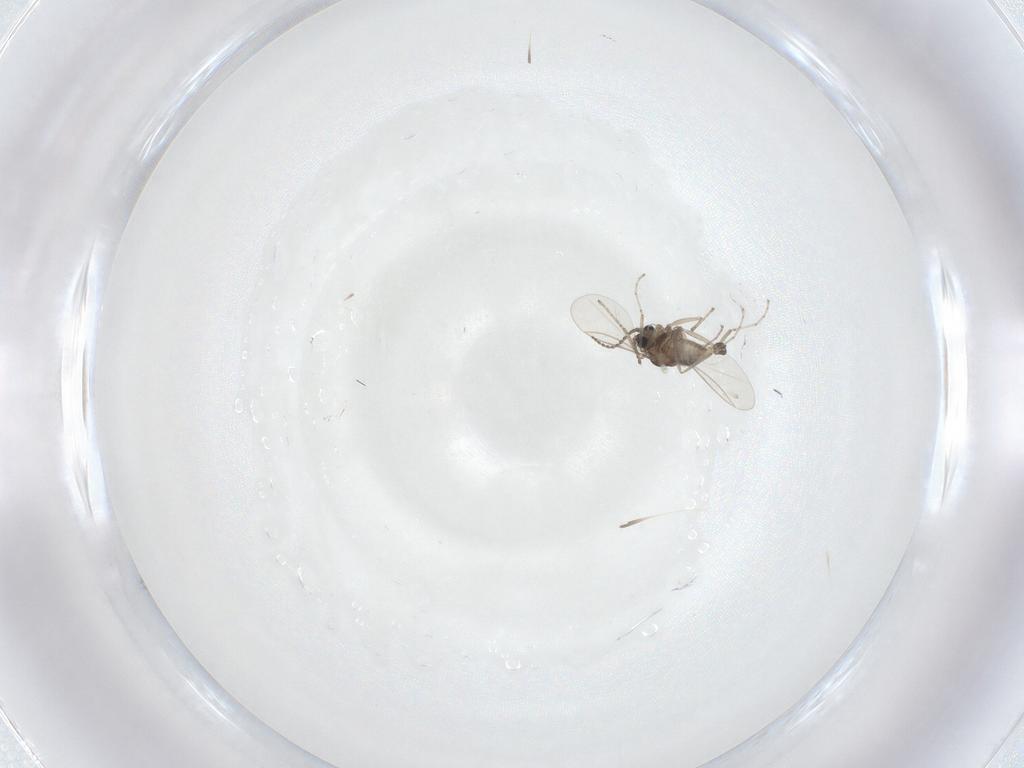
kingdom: Animalia
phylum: Arthropoda
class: Insecta
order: Diptera
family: Cecidomyiidae
